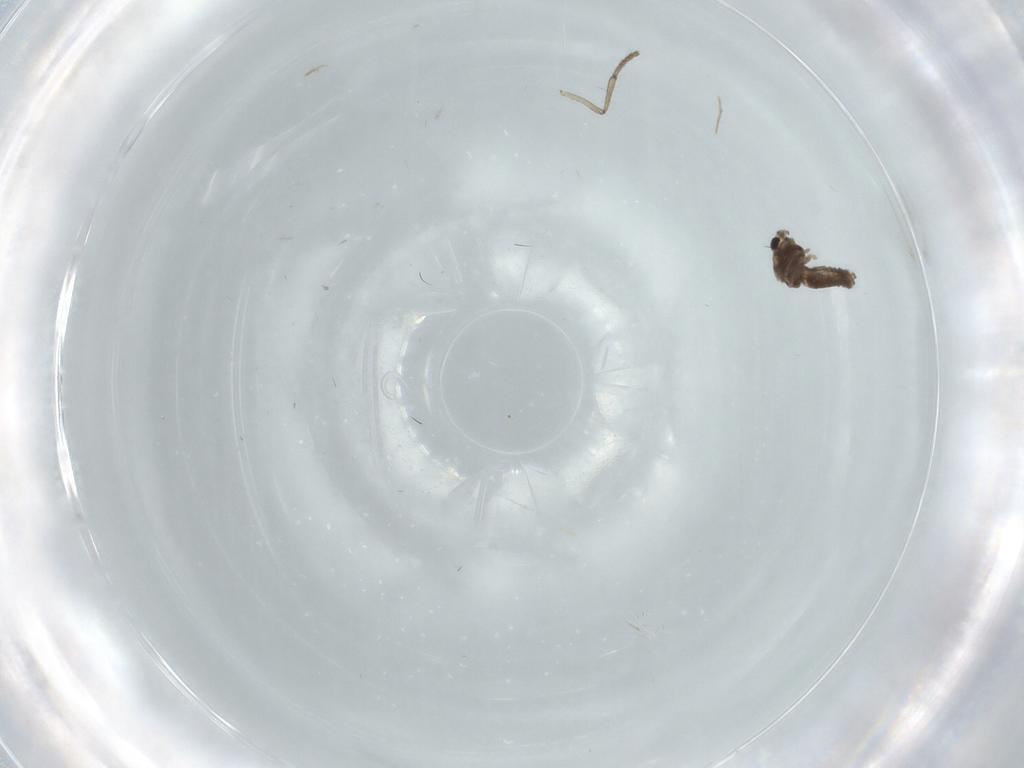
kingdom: Animalia
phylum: Arthropoda
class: Insecta
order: Diptera
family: Chironomidae
